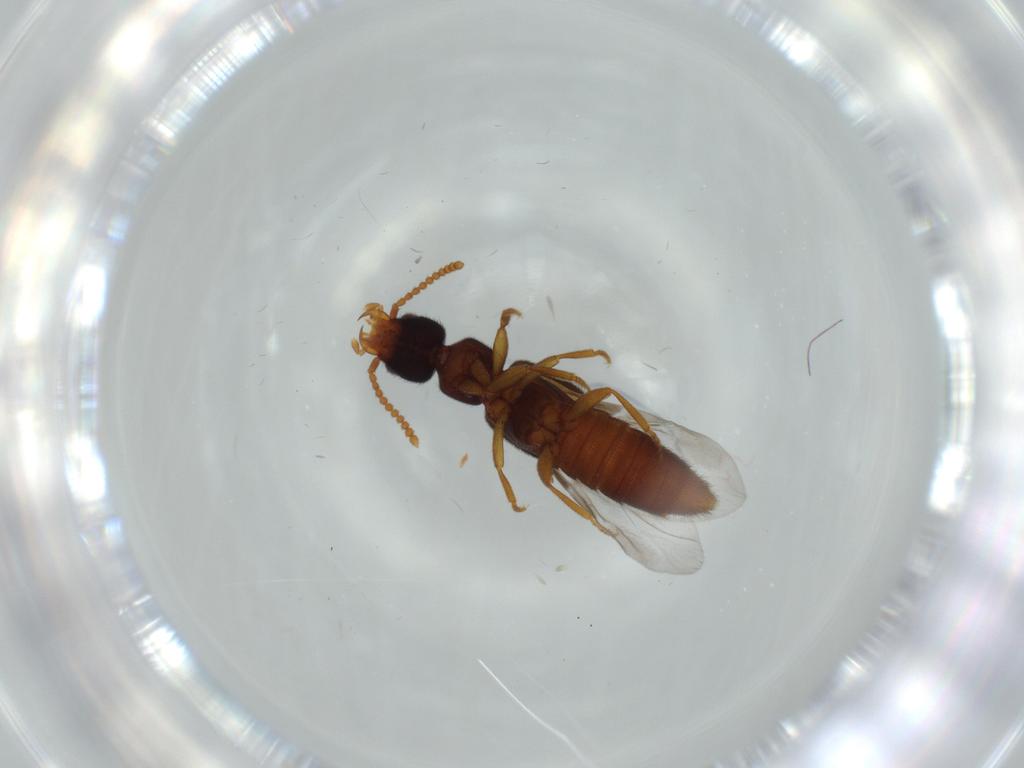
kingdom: Animalia
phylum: Arthropoda
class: Insecta
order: Coleoptera
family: Staphylinidae
